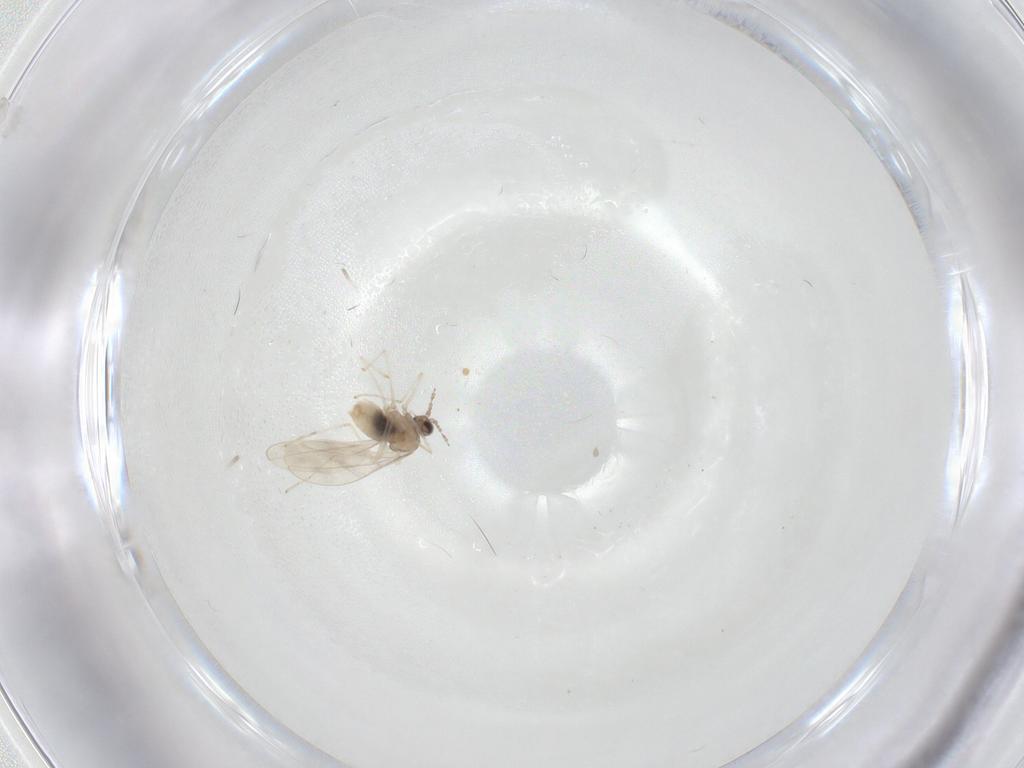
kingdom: Animalia
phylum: Arthropoda
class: Insecta
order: Diptera
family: Cecidomyiidae
